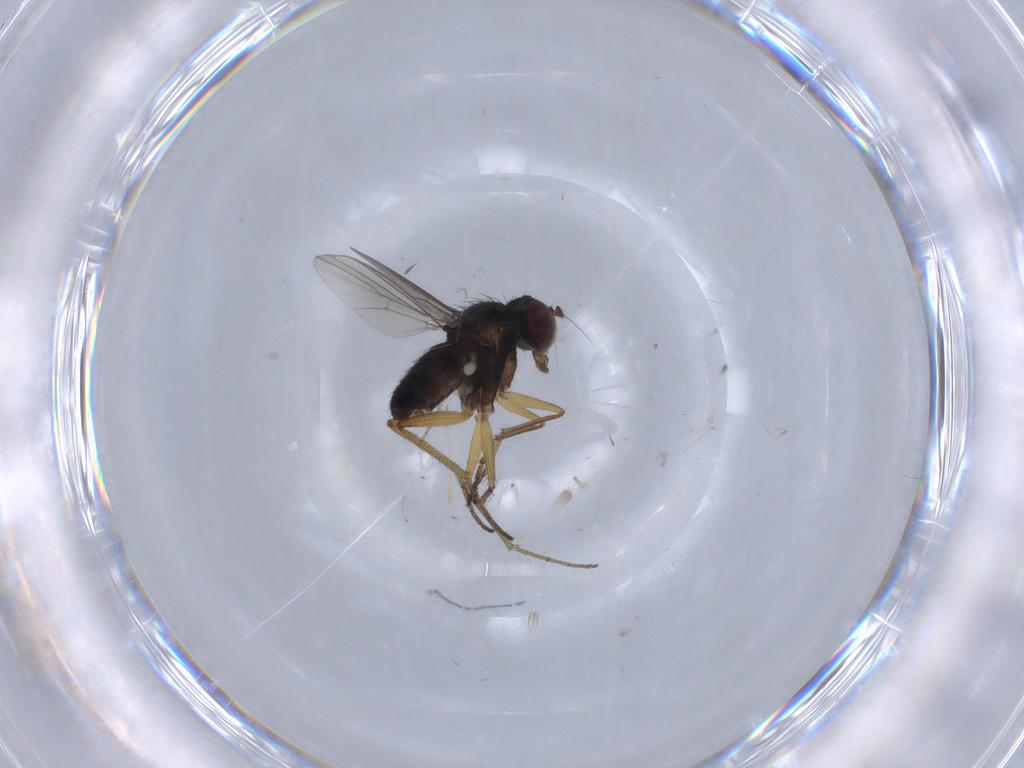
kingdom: Animalia
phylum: Arthropoda
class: Insecta
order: Diptera
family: Dolichopodidae
